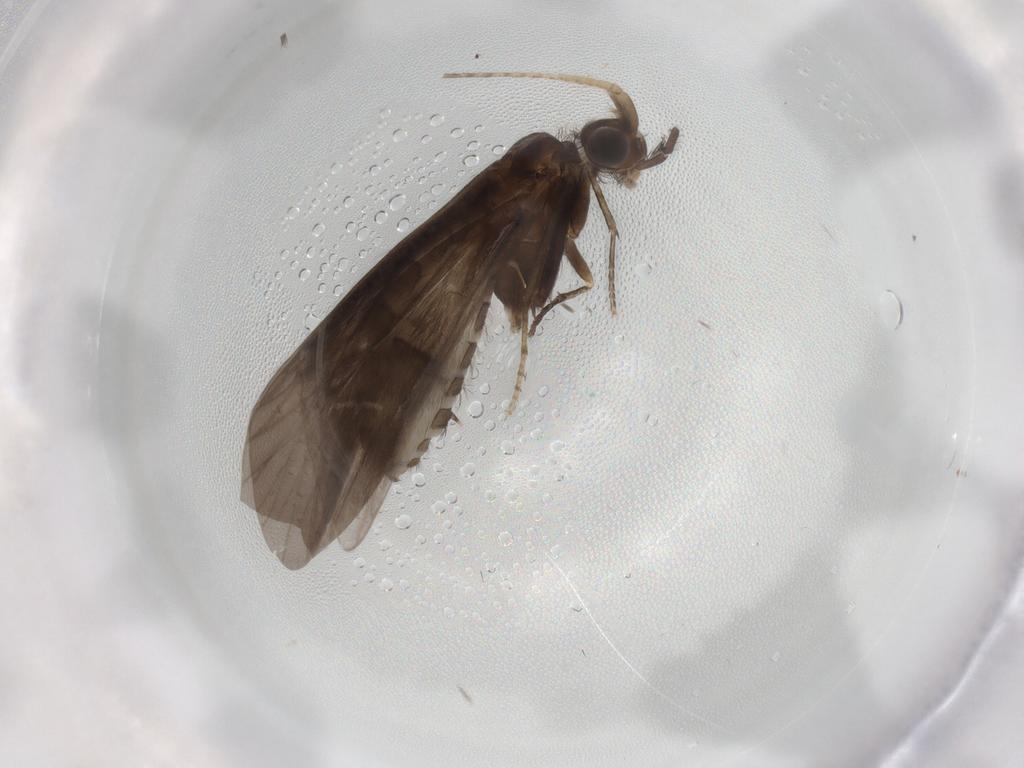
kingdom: Animalia
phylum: Arthropoda
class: Insecta
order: Trichoptera
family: Helicopsychidae
